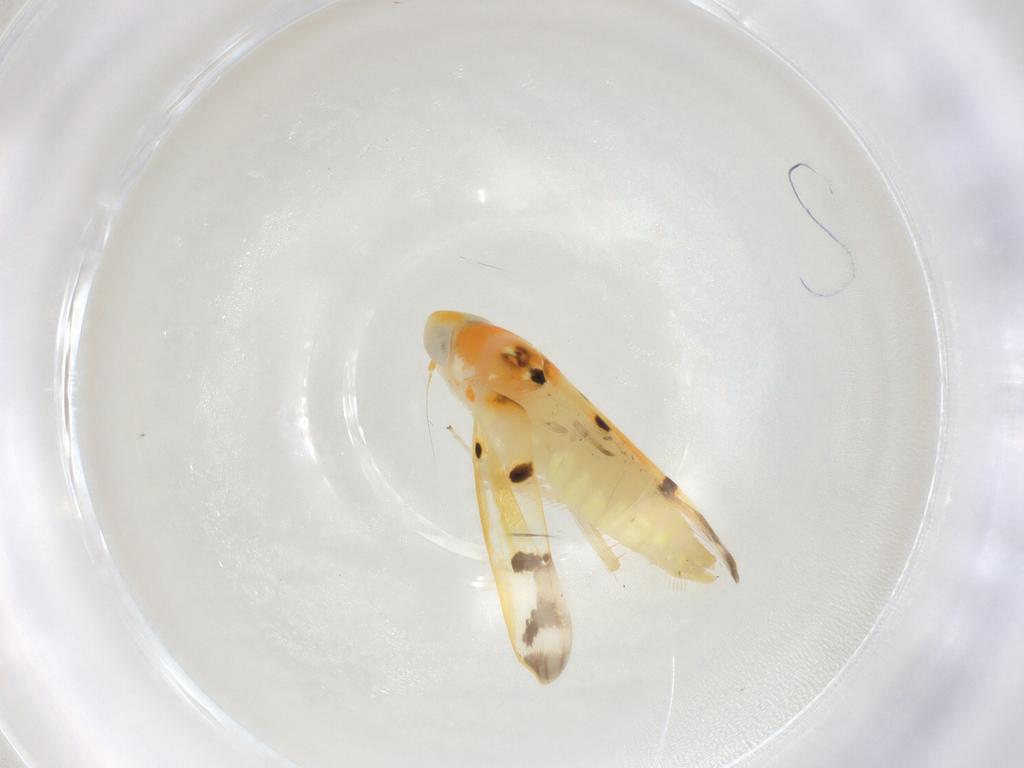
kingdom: Animalia
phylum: Arthropoda
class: Insecta
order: Hemiptera
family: Cicadellidae
